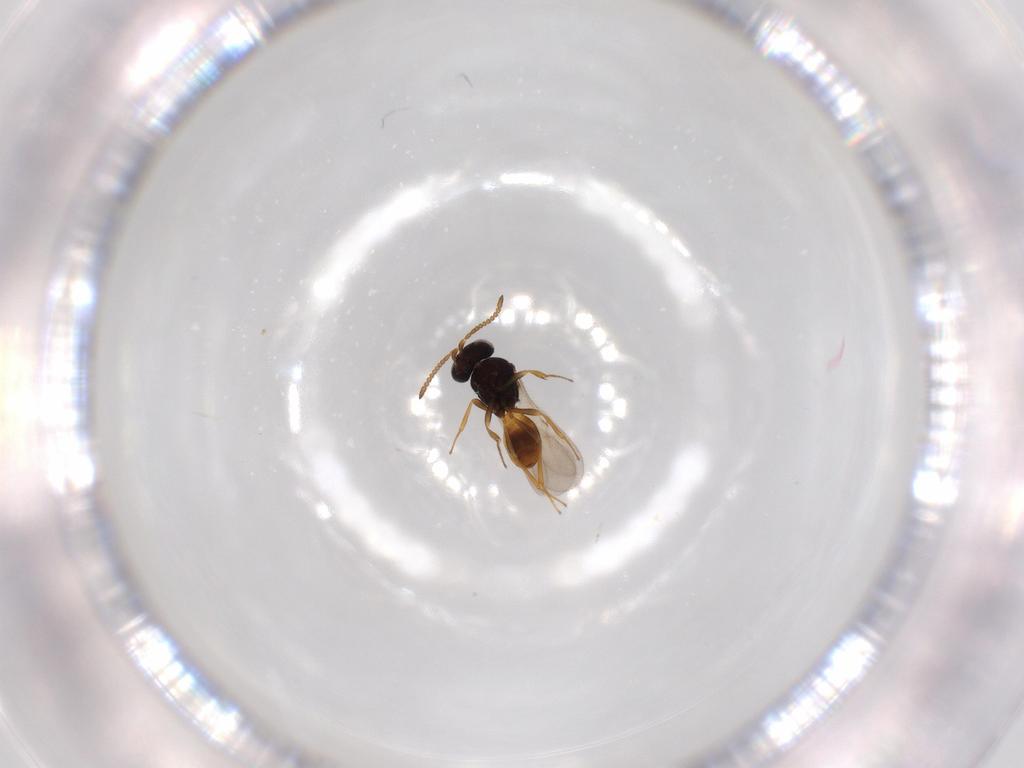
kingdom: Animalia
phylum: Arthropoda
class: Insecta
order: Hymenoptera
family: Scelionidae
